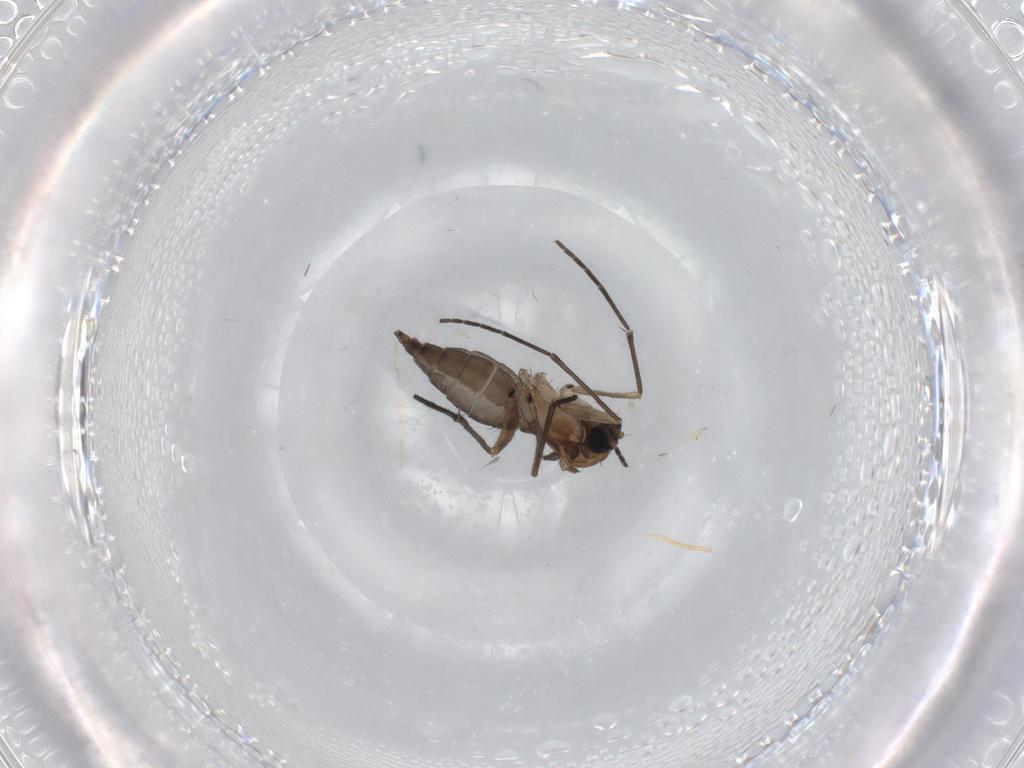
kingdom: Animalia
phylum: Arthropoda
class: Insecta
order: Diptera
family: Sciaridae
